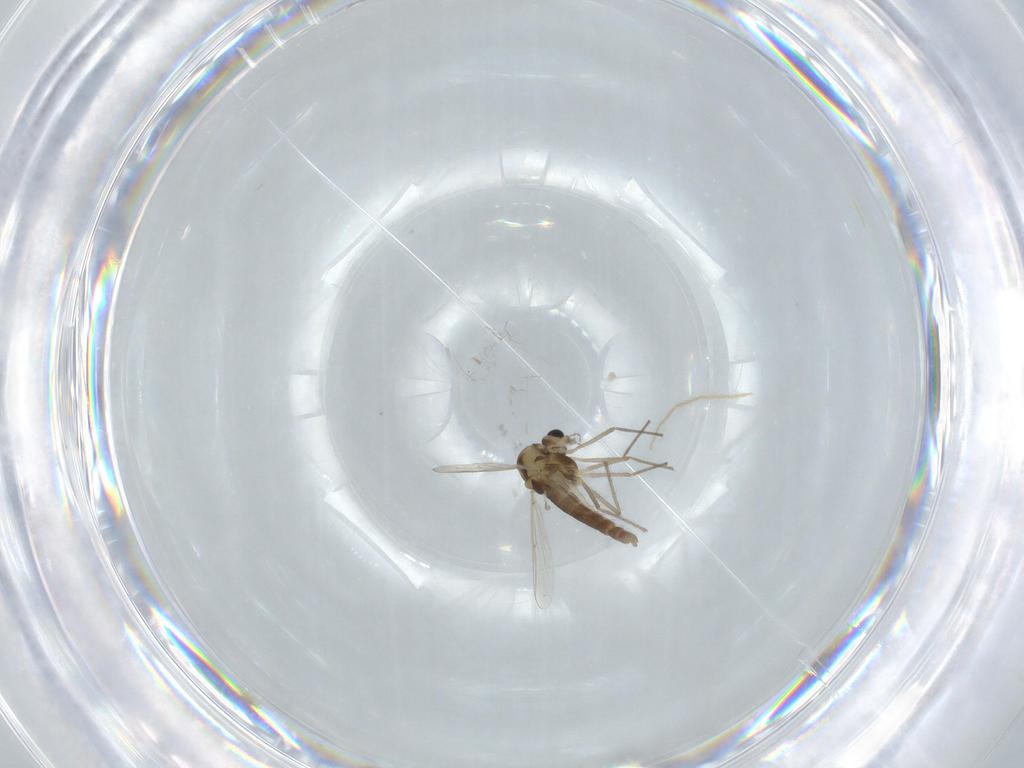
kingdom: Animalia
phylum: Arthropoda
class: Insecta
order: Diptera
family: Chironomidae
